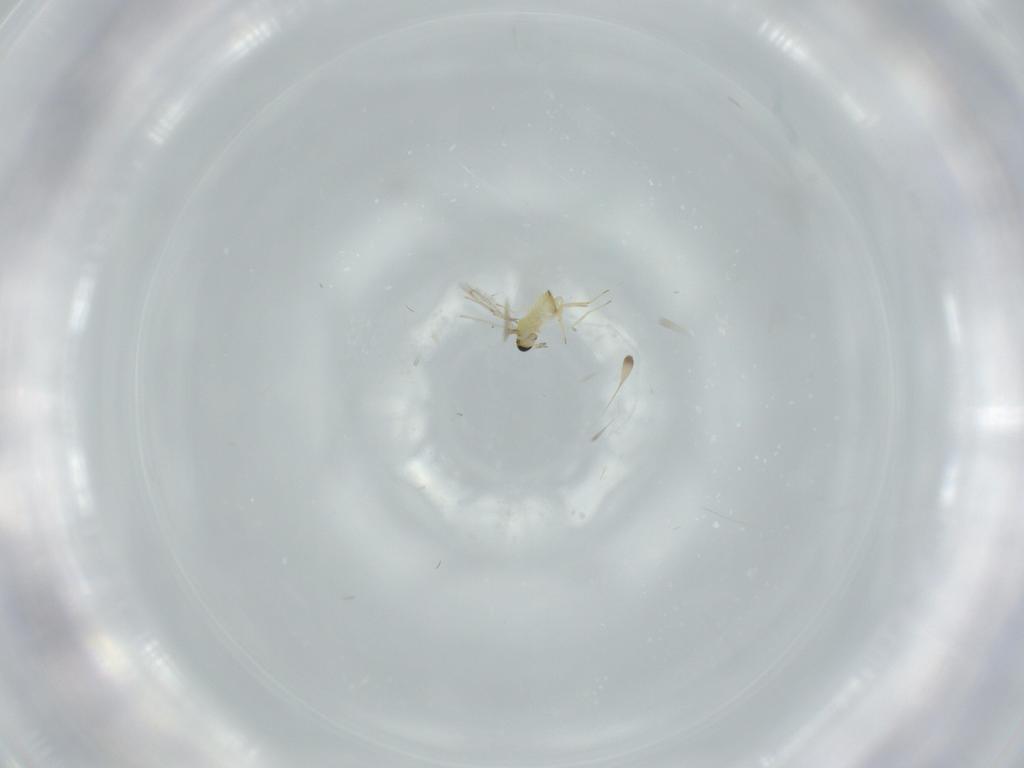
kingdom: Animalia
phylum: Arthropoda
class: Insecta
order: Hymenoptera
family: Trichogrammatidae
